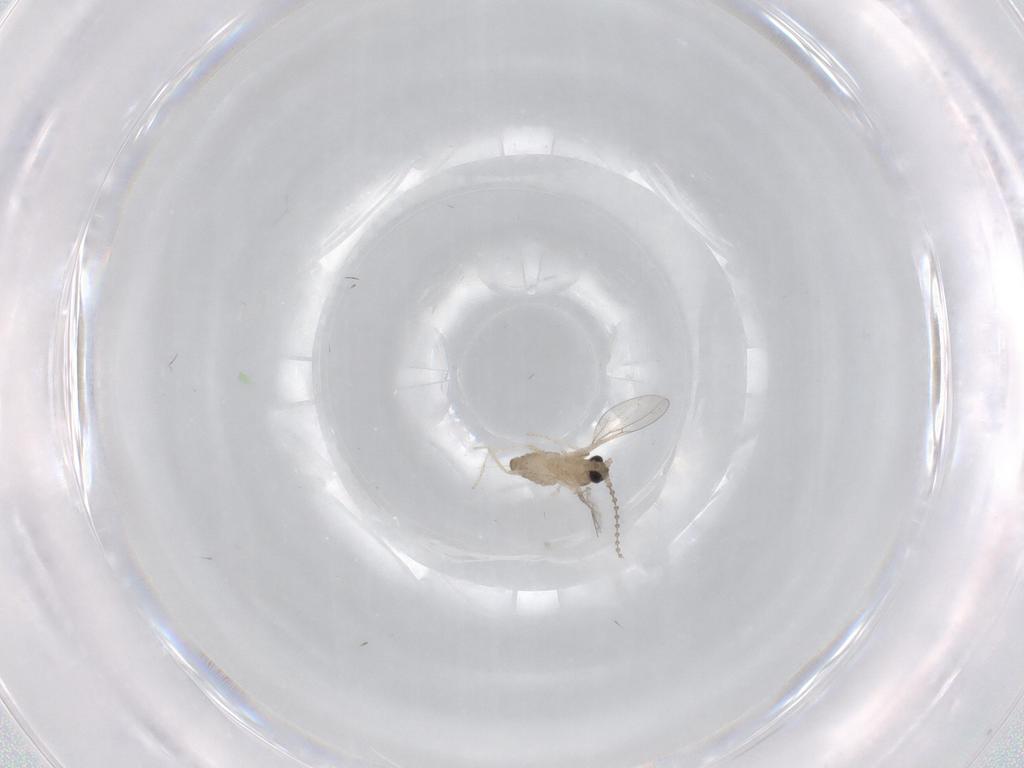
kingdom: Animalia
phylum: Arthropoda
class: Insecta
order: Diptera
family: Cecidomyiidae
